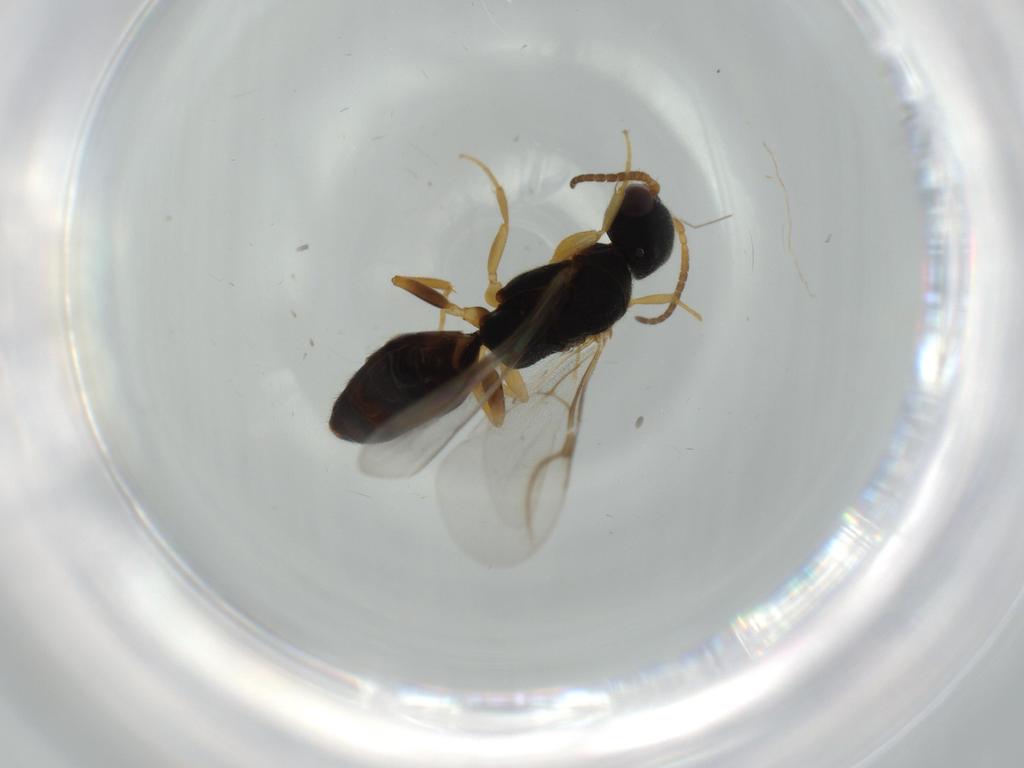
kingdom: Animalia
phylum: Arthropoda
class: Insecta
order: Hymenoptera
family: Bethylidae
